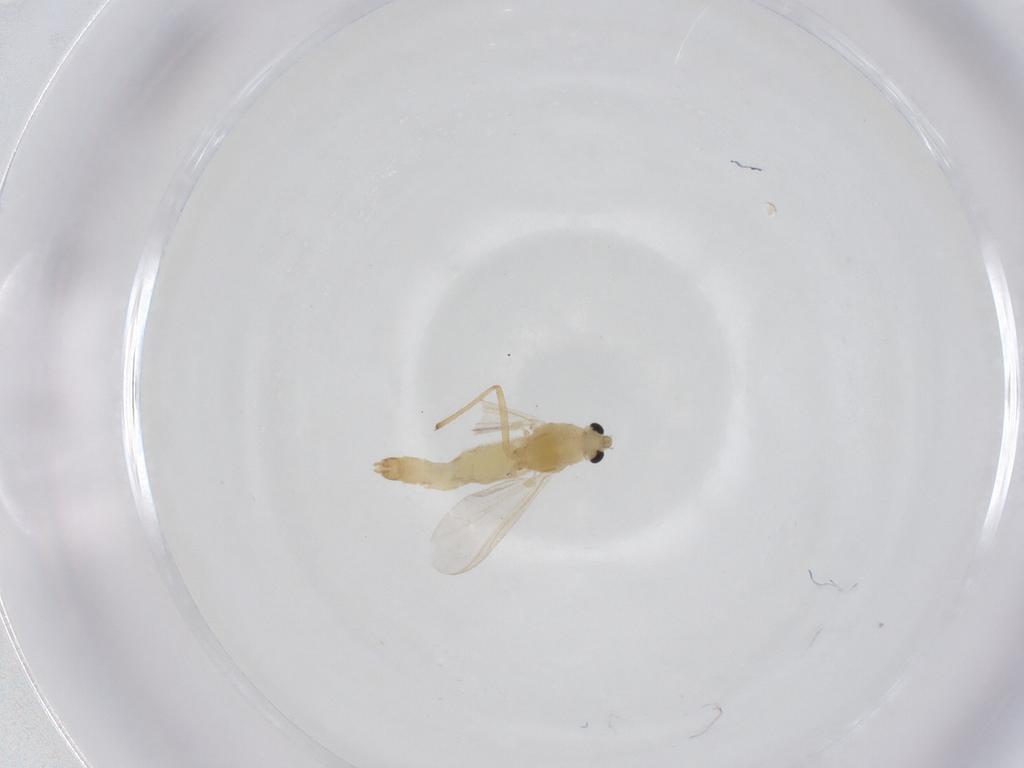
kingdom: Animalia
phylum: Arthropoda
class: Insecta
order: Diptera
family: Chironomidae
